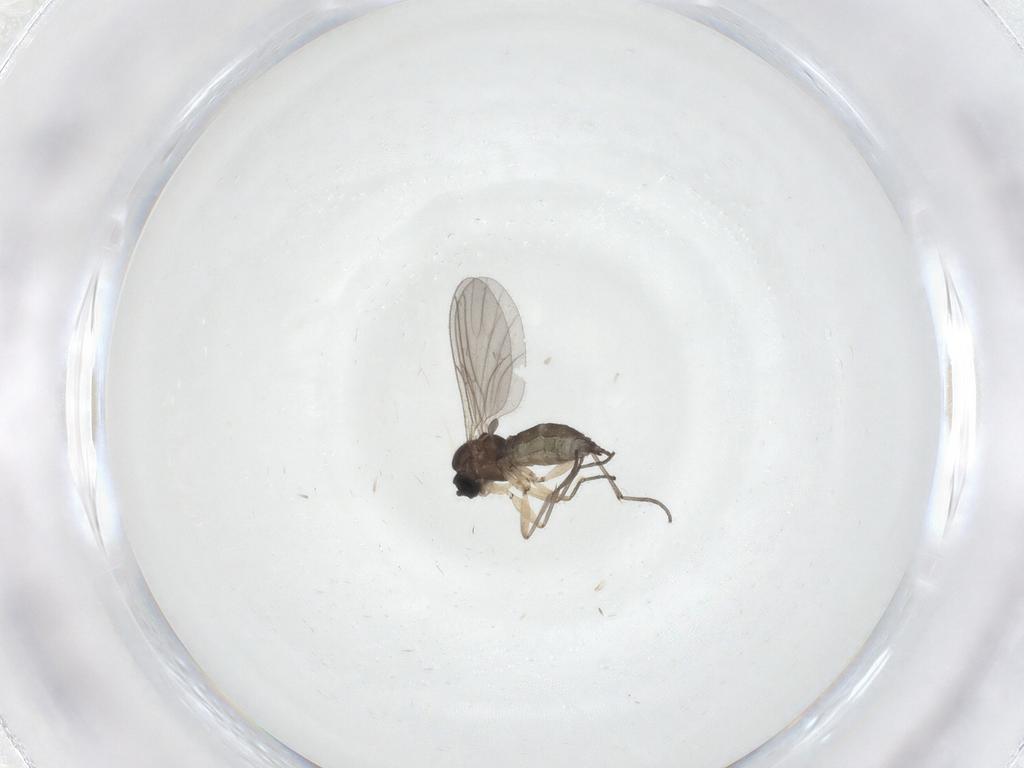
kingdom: Animalia
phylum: Arthropoda
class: Insecta
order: Diptera
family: Sciaridae
